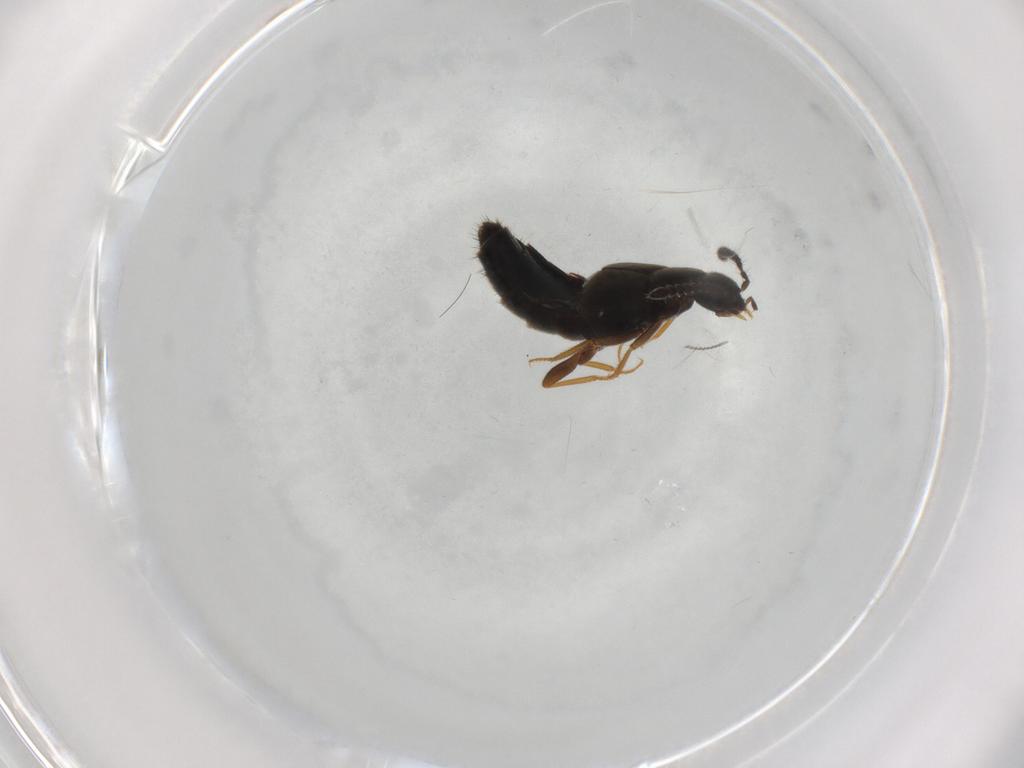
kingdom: Animalia
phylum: Arthropoda
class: Insecta
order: Coleoptera
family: Staphylinidae
